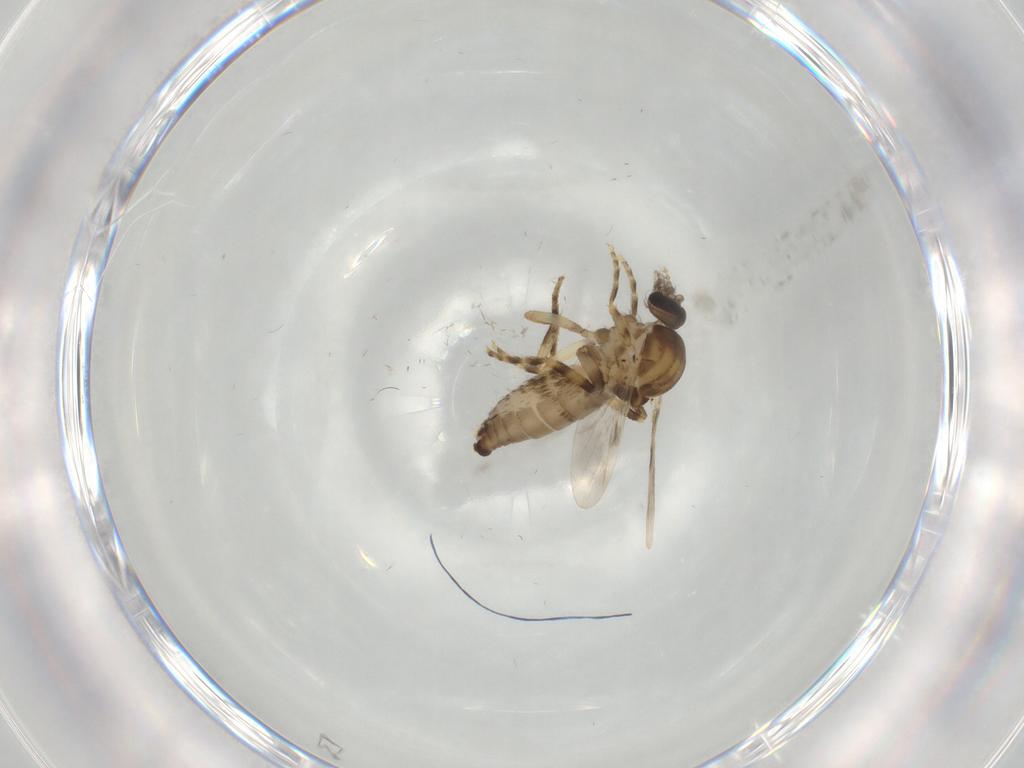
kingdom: Animalia
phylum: Arthropoda
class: Insecta
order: Diptera
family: Ceratopogonidae
